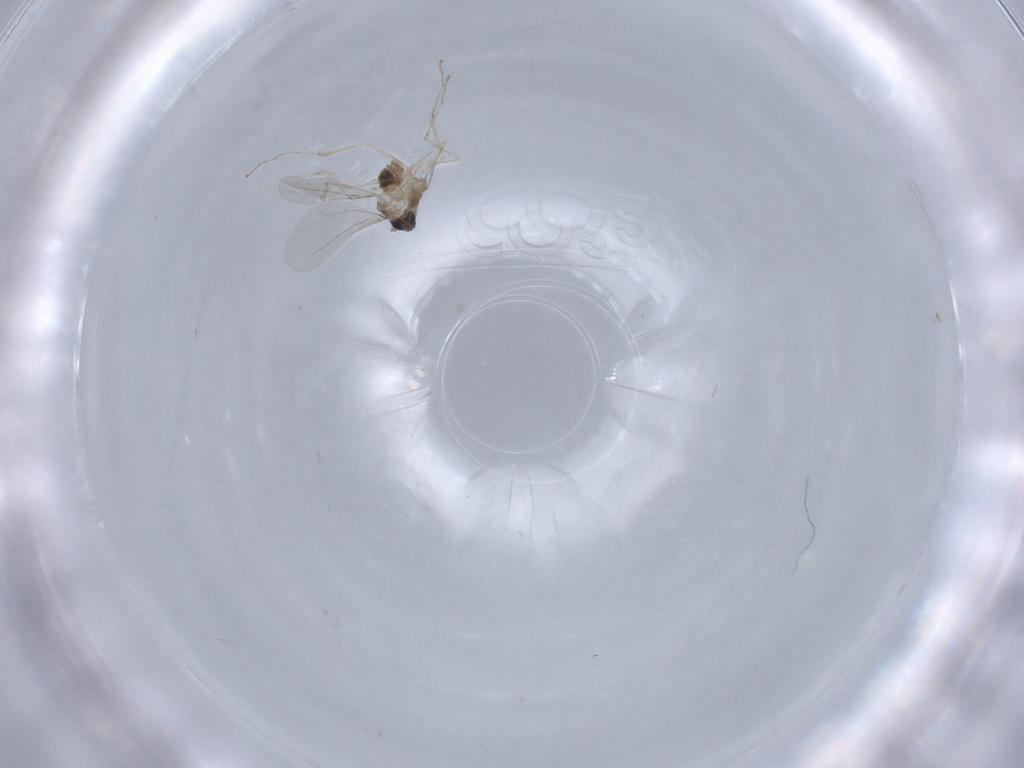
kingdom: Animalia
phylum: Arthropoda
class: Insecta
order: Diptera
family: Cecidomyiidae
